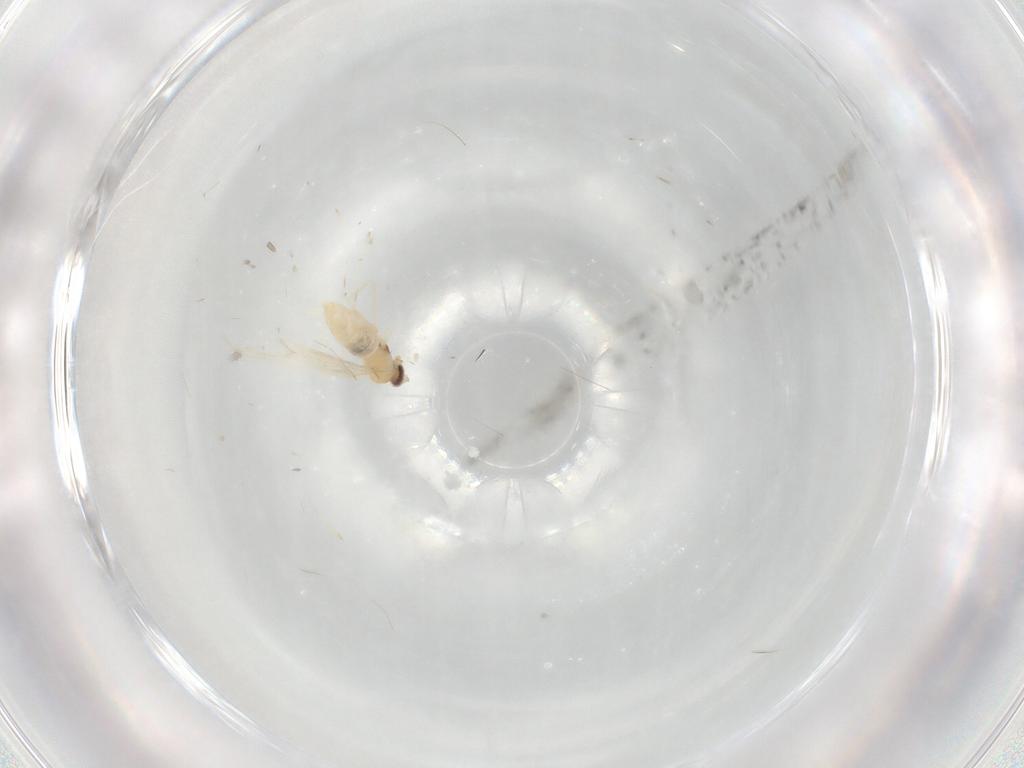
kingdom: Animalia
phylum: Arthropoda
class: Insecta
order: Diptera
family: Cecidomyiidae
